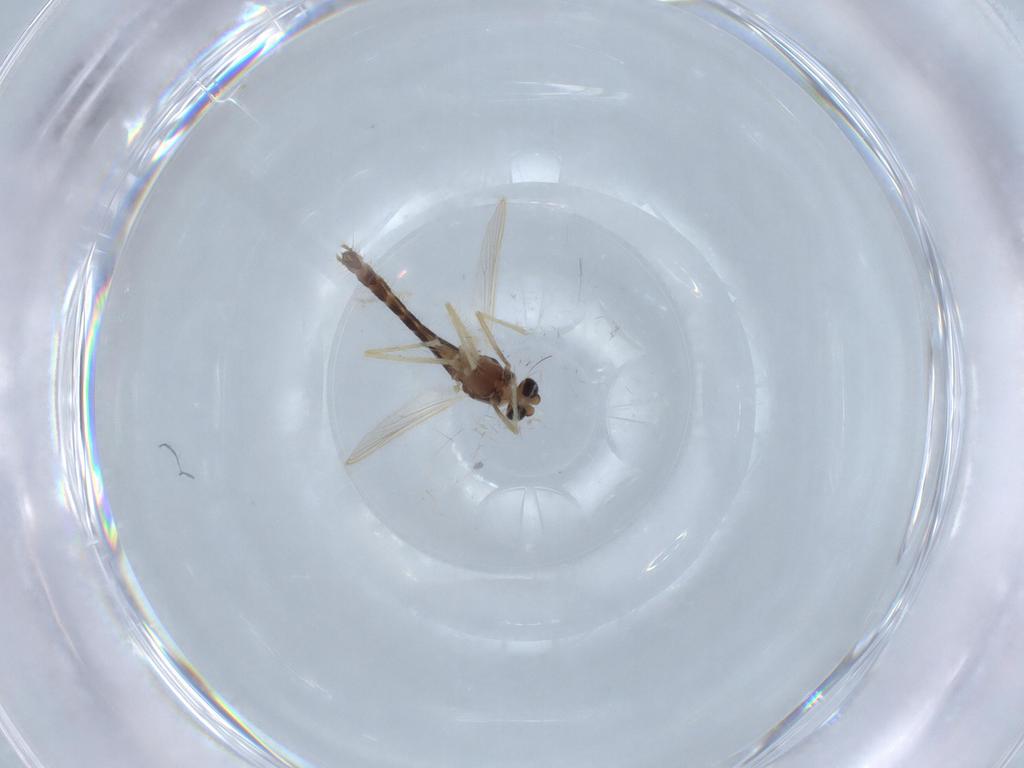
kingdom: Animalia
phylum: Arthropoda
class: Insecta
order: Diptera
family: Chironomidae
